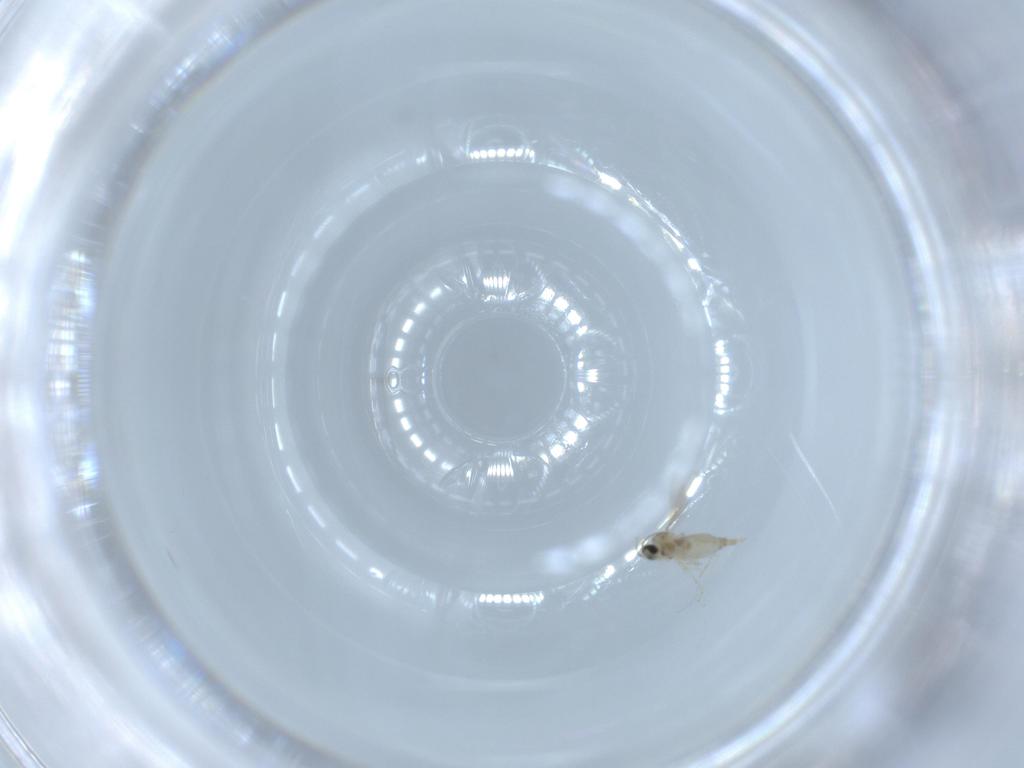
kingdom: Animalia
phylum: Arthropoda
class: Insecta
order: Diptera
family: Cecidomyiidae
